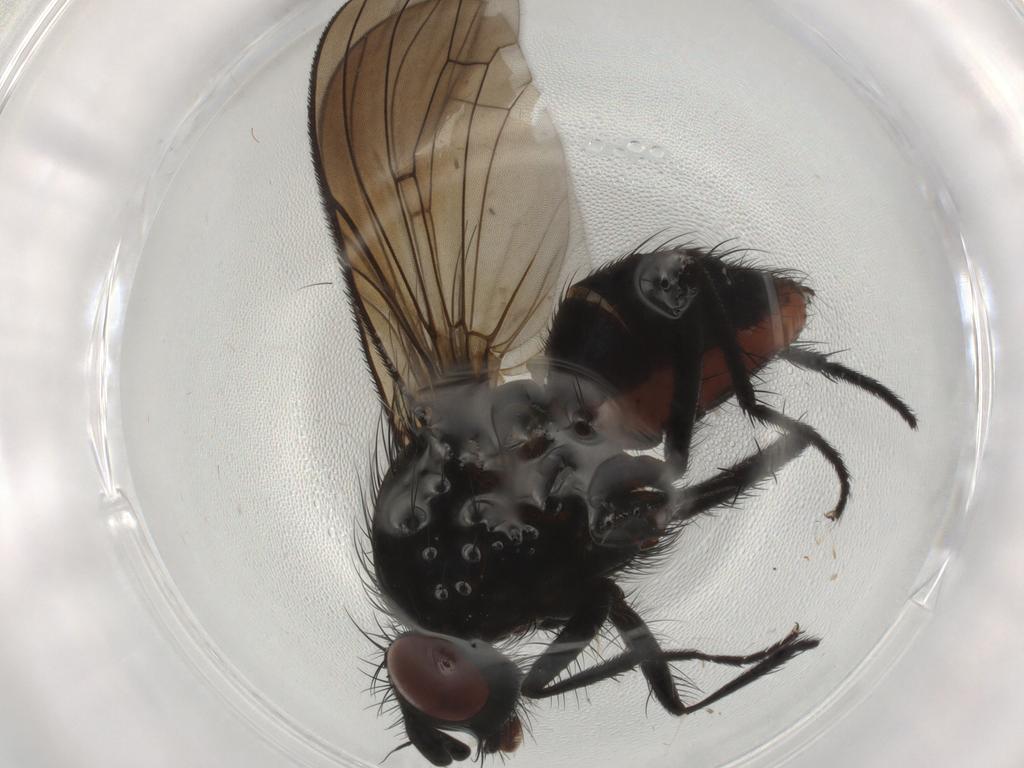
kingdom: Animalia
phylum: Arthropoda
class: Insecta
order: Diptera
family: Anthomyiidae
